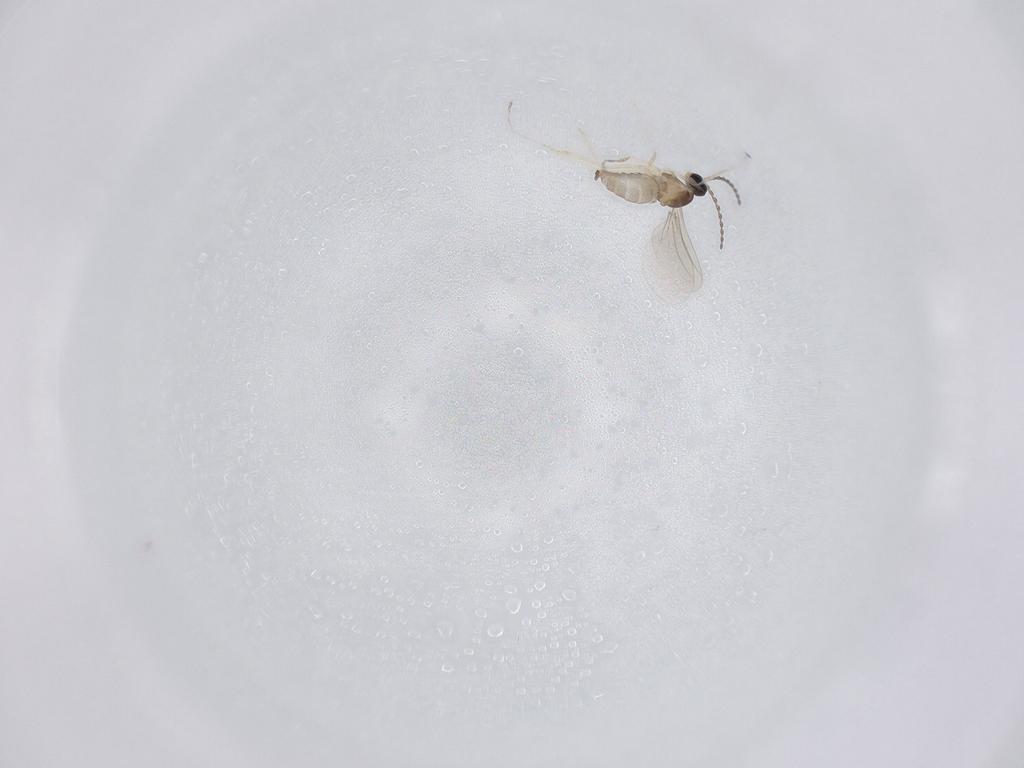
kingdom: Animalia
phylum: Arthropoda
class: Insecta
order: Diptera
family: Cecidomyiidae
